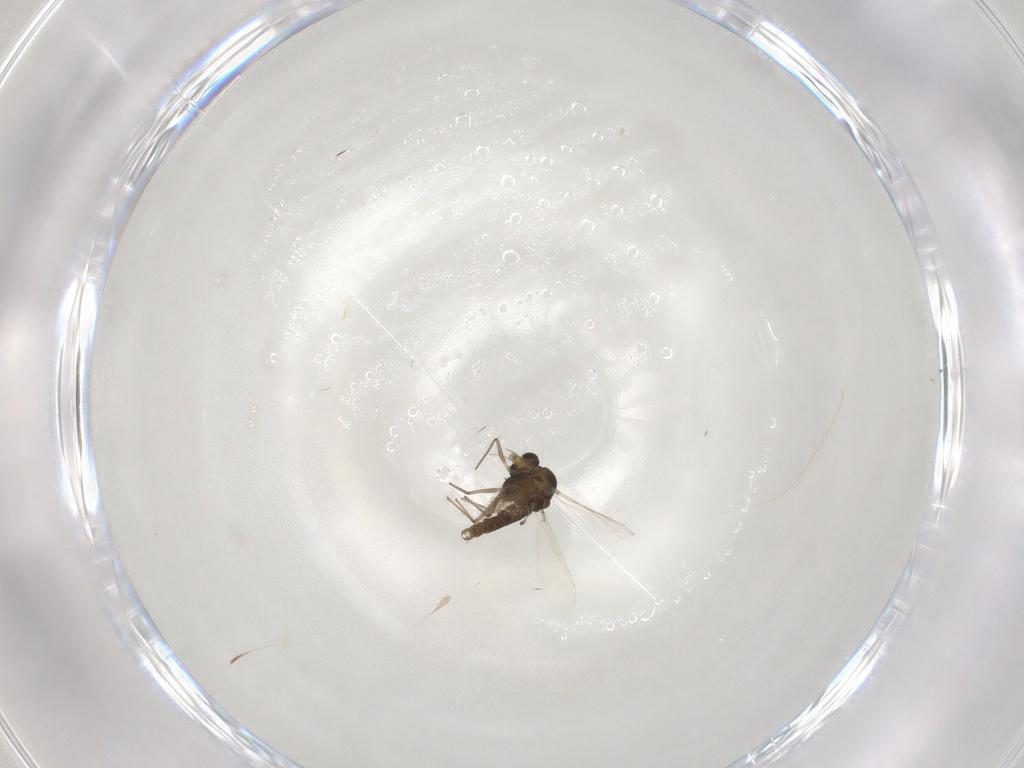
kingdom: Animalia
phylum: Arthropoda
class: Insecta
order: Diptera
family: Cecidomyiidae
